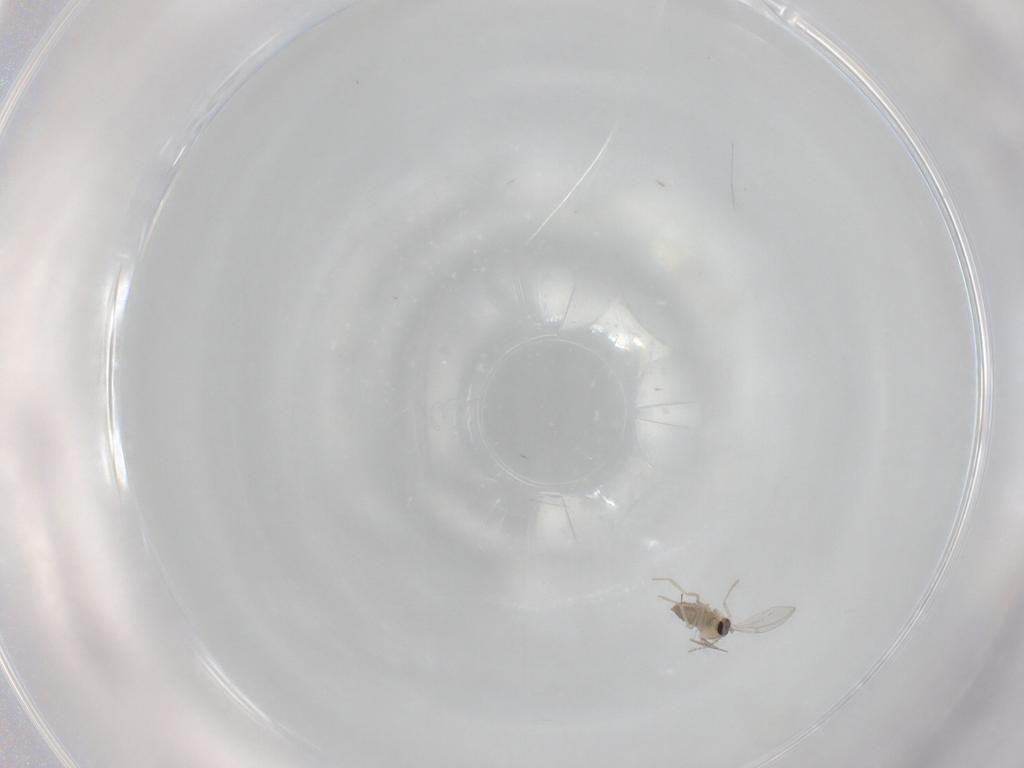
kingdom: Animalia
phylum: Arthropoda
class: Insecta
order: Diptera
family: Cecidomyiidae
